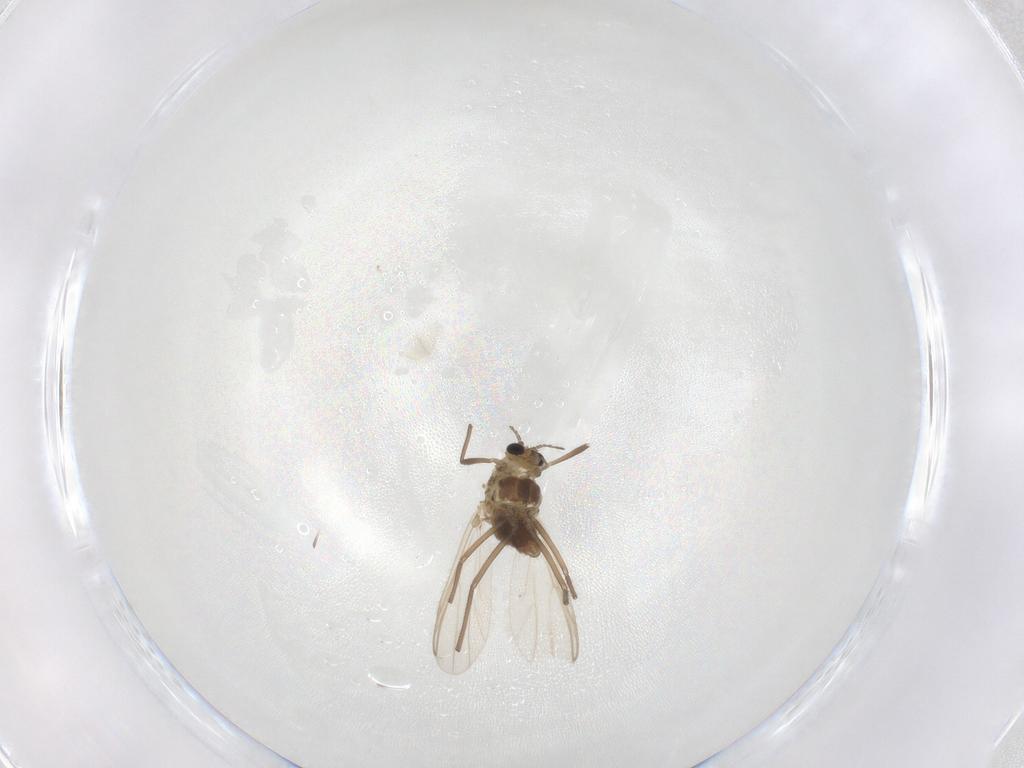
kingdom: Animalia
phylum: Arthropoda
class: Insecta
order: Diptera
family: Chironomidae
